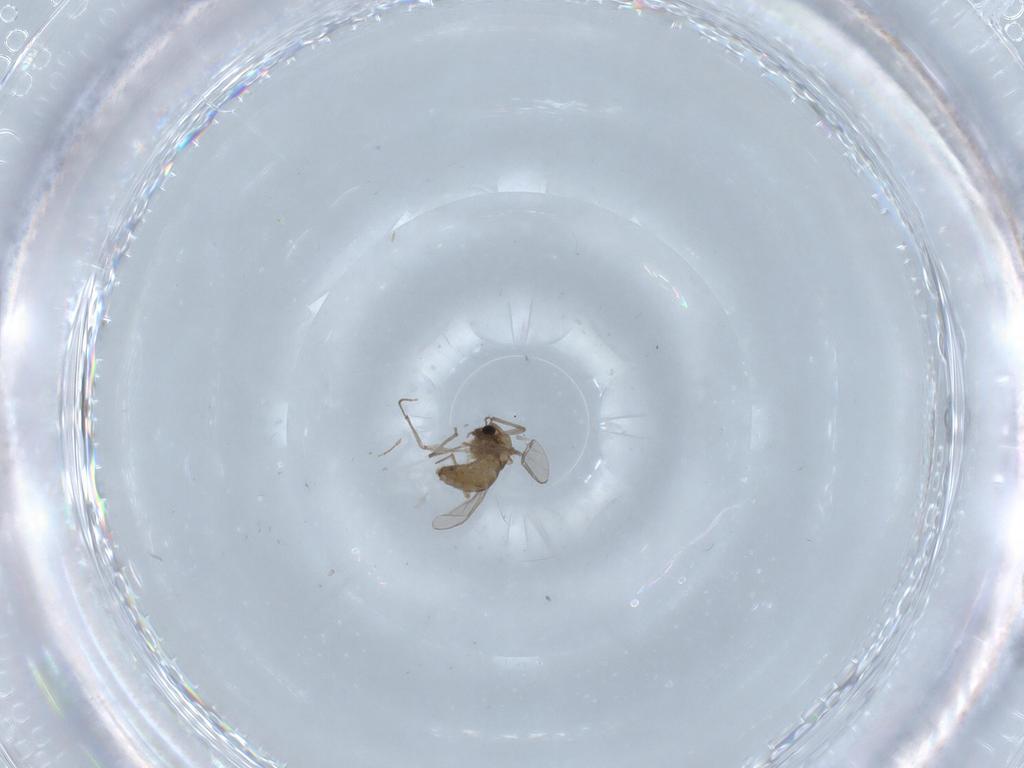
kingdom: Animalia
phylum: Arthropoda
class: Insecta
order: Diptera
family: Chironomidae
